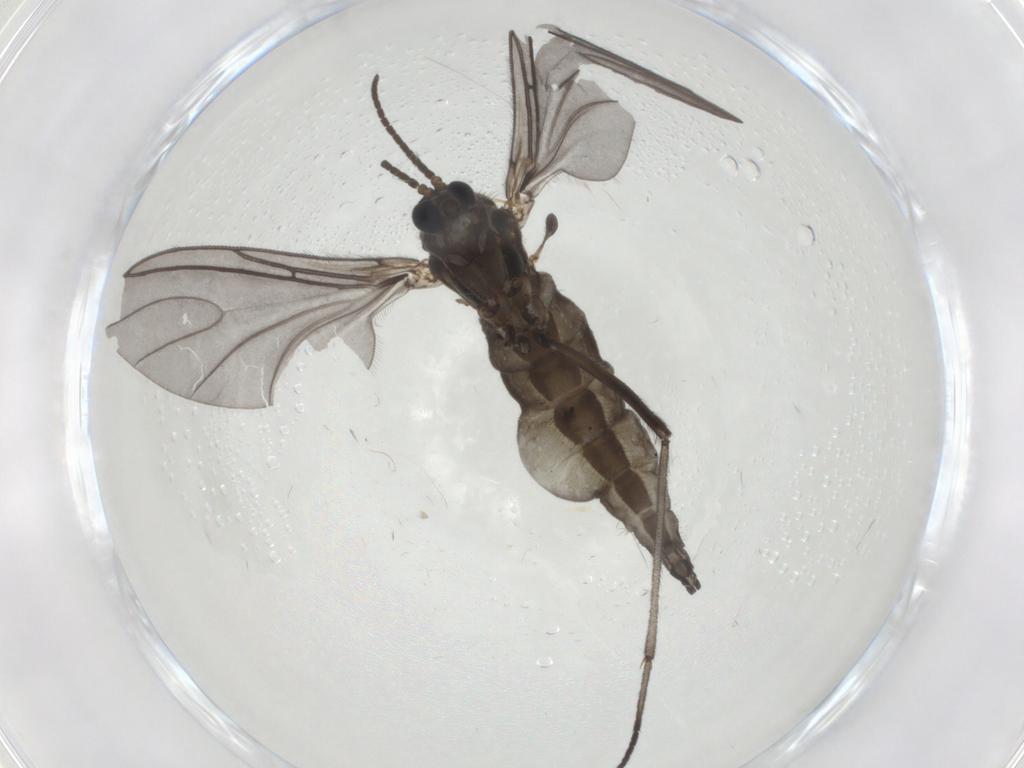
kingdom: Animalia
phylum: Arthropoda
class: Insecta
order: Diptera
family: Sciaridae
